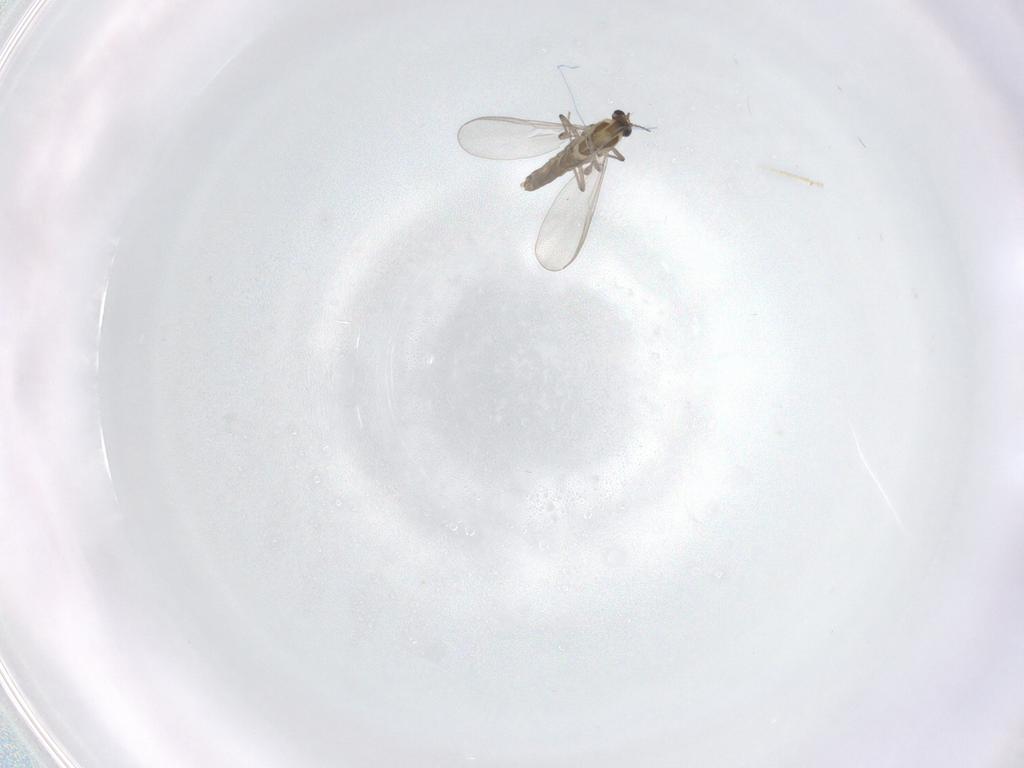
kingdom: Animalia
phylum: Arthropoda
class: Insecta
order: Diptera
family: Chironomidae
